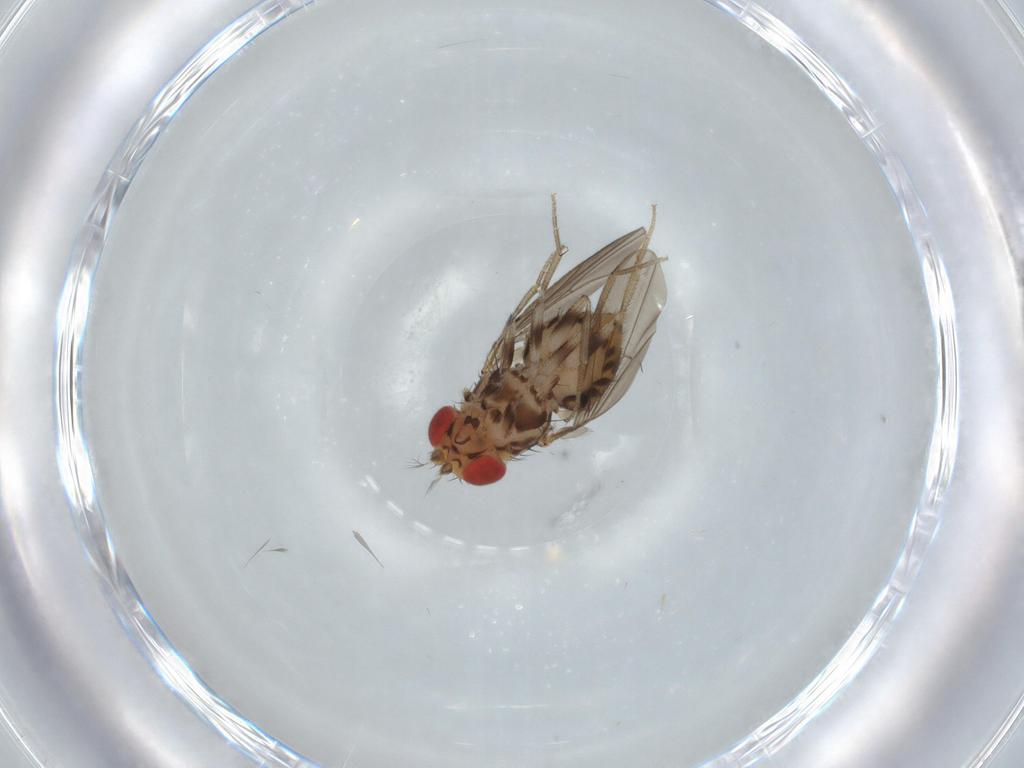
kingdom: Animalia
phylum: Arthropoda
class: Insecta
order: Diptera
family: Drosophilidae
